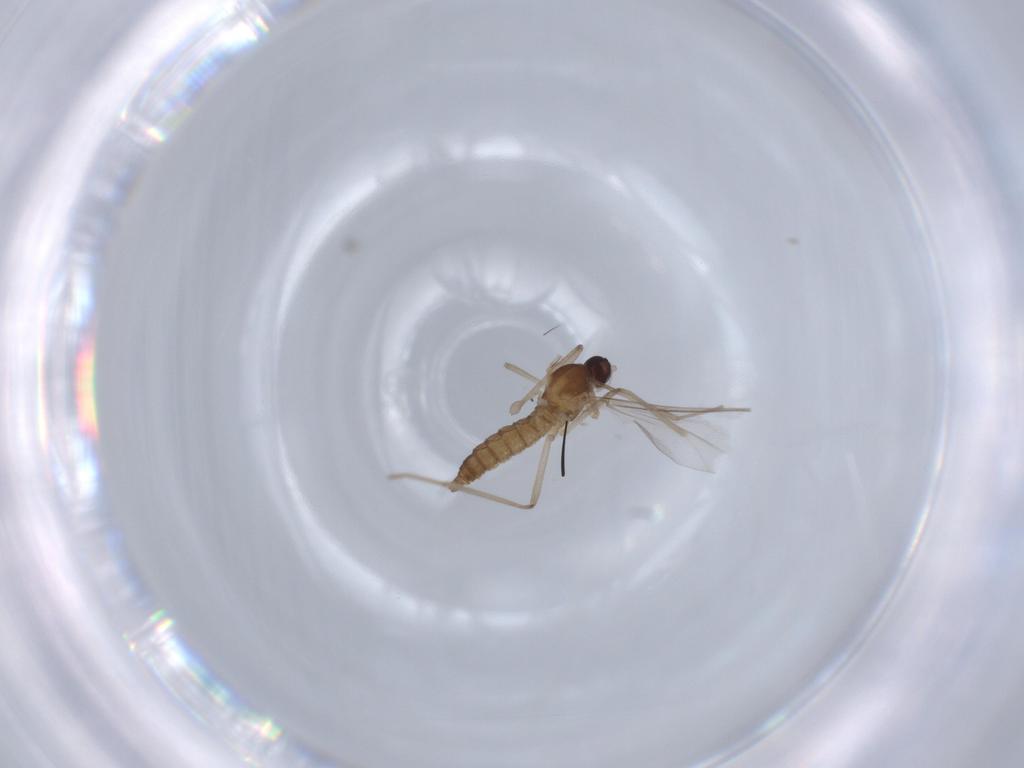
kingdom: Animalia
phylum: Arthropoda
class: Insecta
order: Diptera
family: Cecidomyiidae
